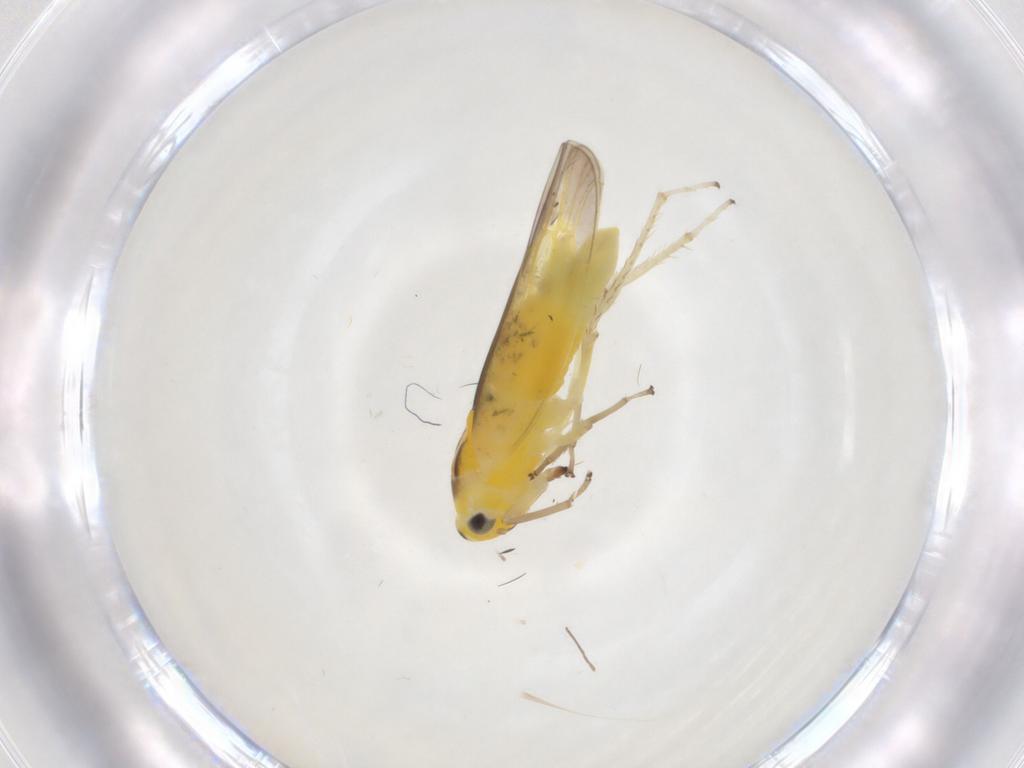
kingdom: Animalia
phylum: Arthropoda
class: Insecta
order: Hemiptera
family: Cicadellidae
